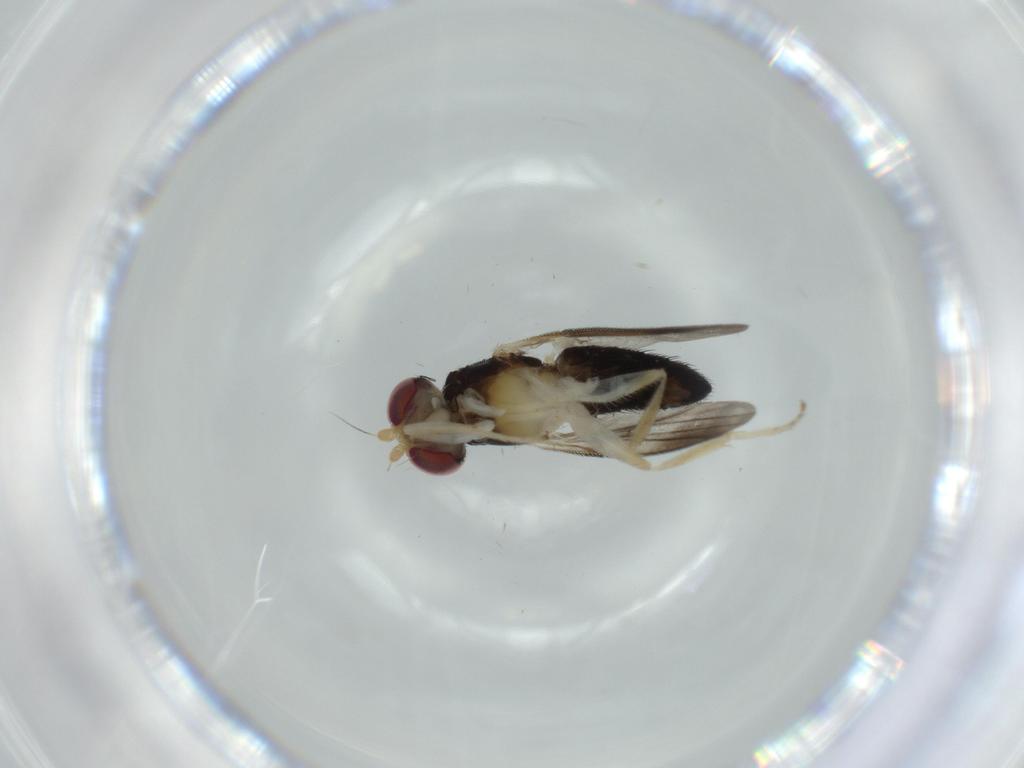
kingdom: Animalia
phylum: Arthropoda
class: Insecta
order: Diptera
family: Clusiidae
